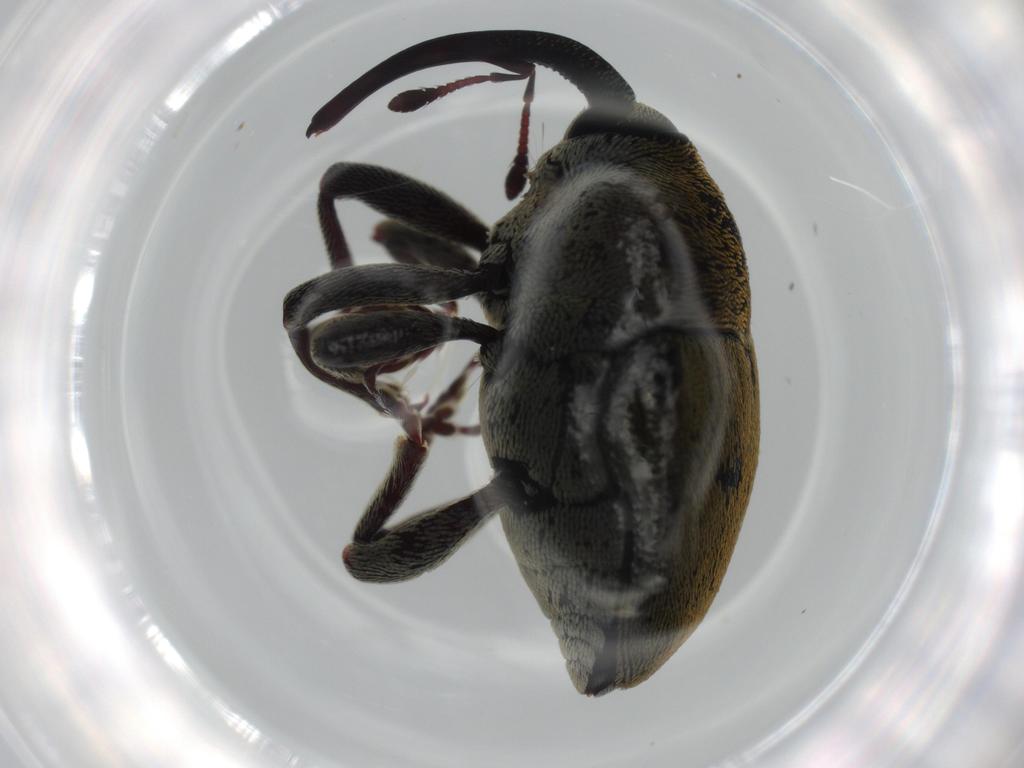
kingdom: Animalia
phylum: Arthropoda
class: Insecta
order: Coleoptera
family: Curculionidae
